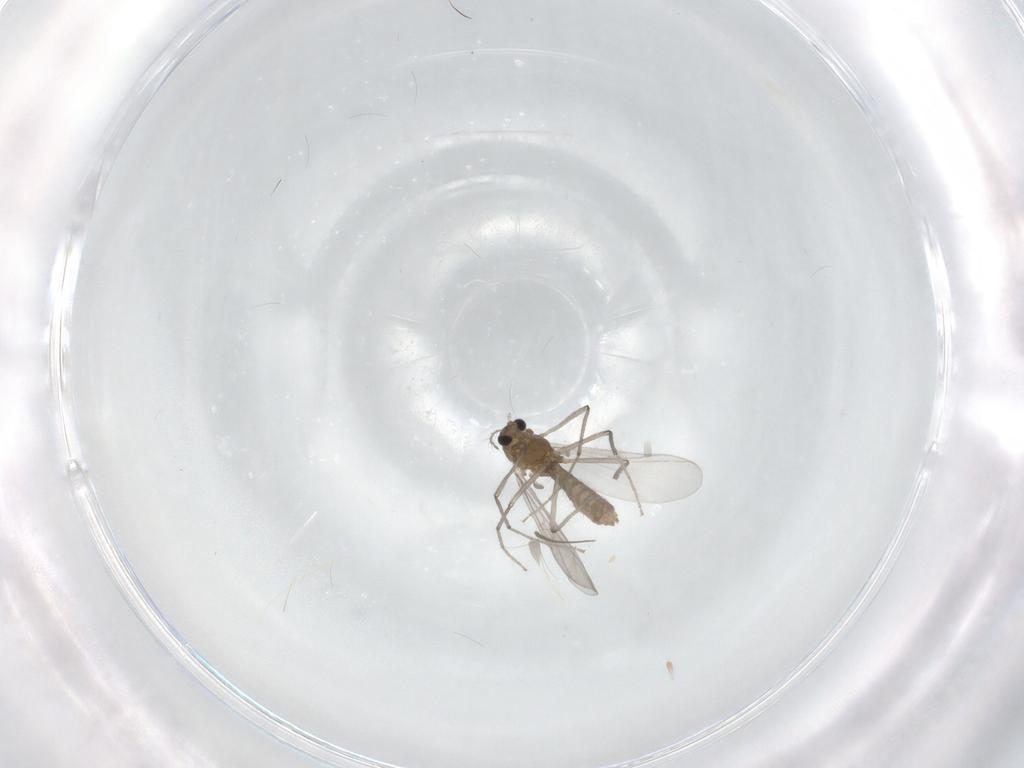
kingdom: Animalia
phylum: Arthropoda
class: Insecta
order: Diptera
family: Chironomidae
